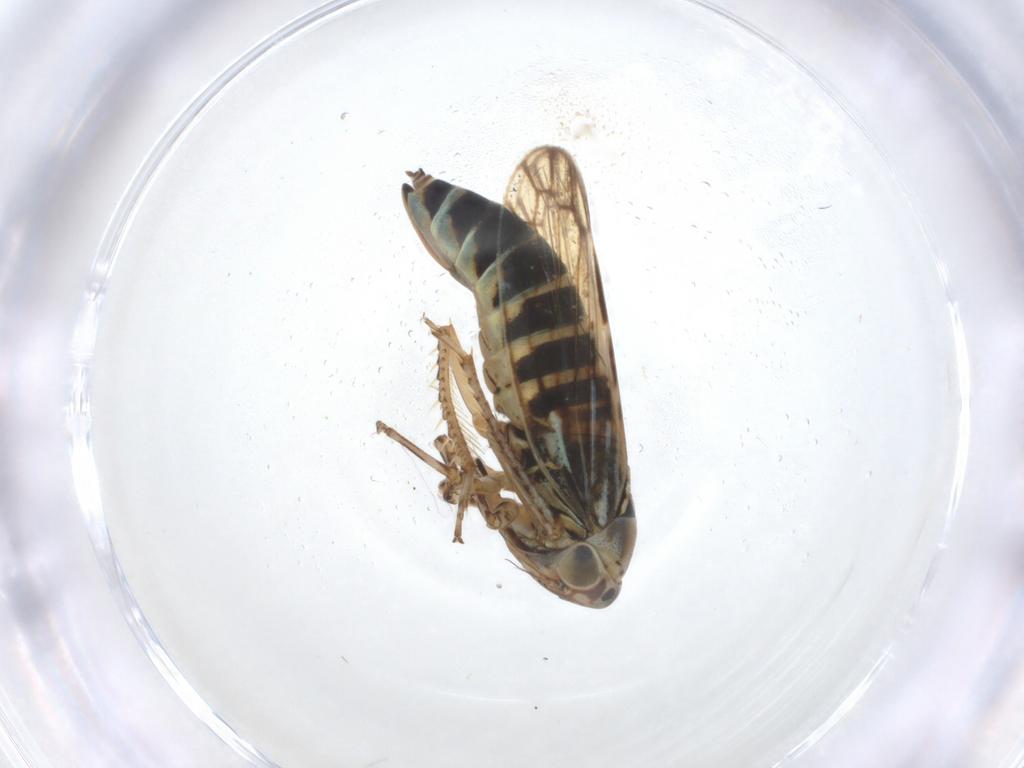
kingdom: Animalia
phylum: Arthropoda
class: Insecta
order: Hemiptera
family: Cicadellidae
